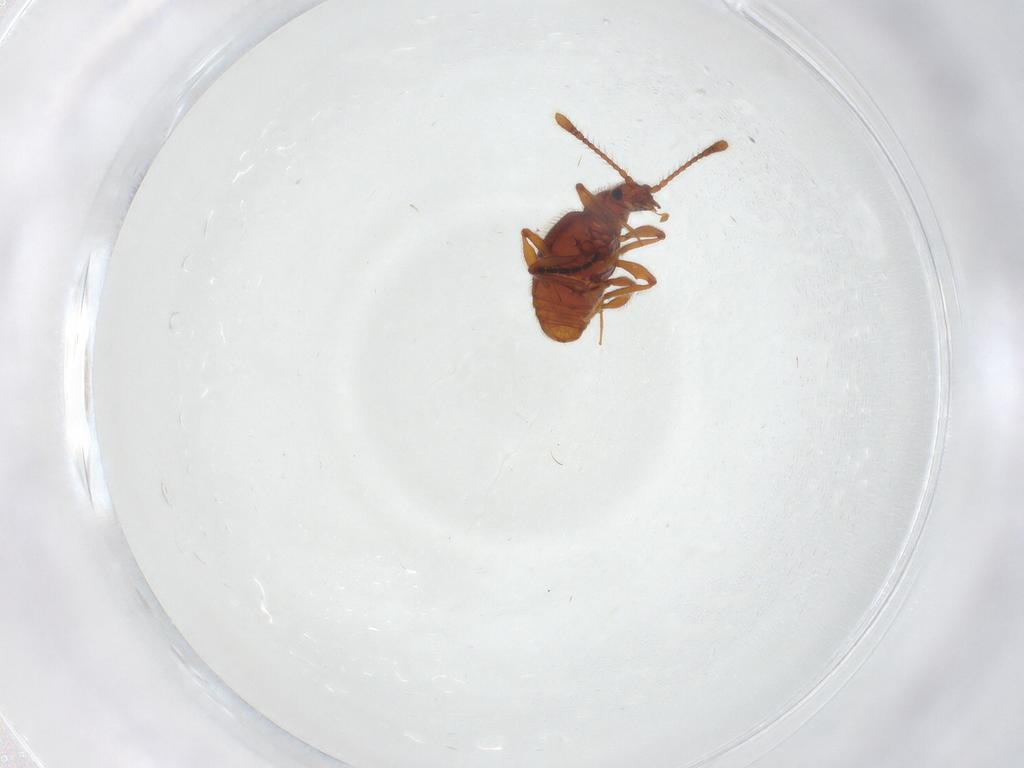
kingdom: Animalia
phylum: Arthropoda
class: Insecta
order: Coleoptera
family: Staphylinidae
